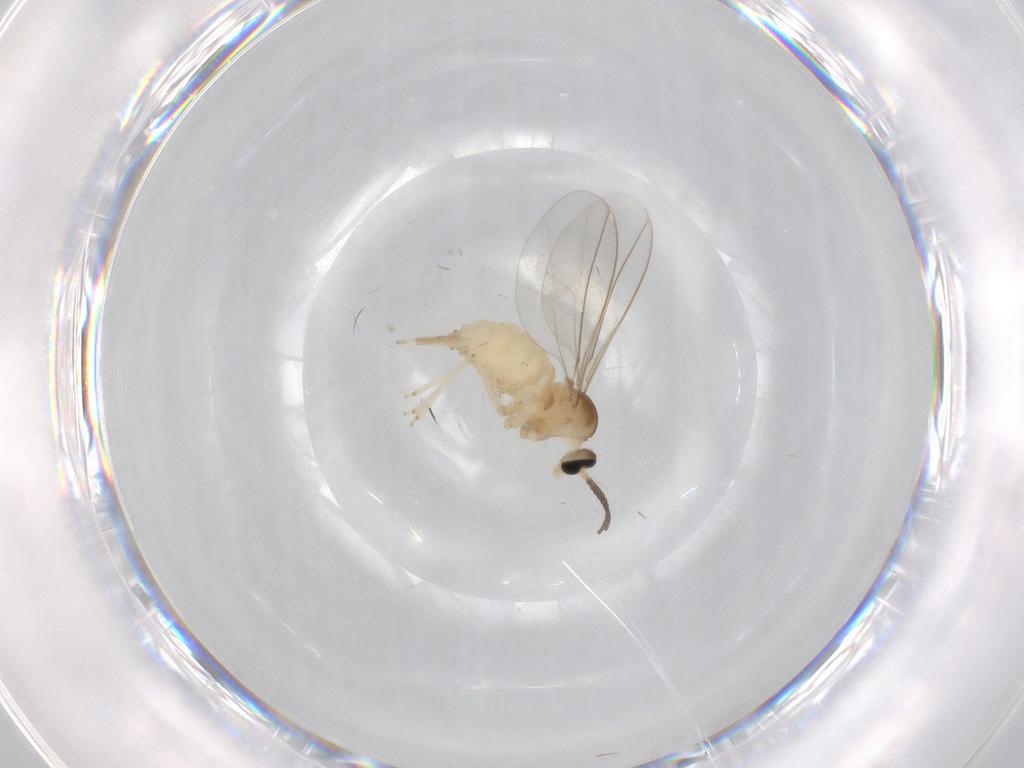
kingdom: Animalia
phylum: Arthropoda
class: Insecta
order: Diptera
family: Cecidomyiidae
